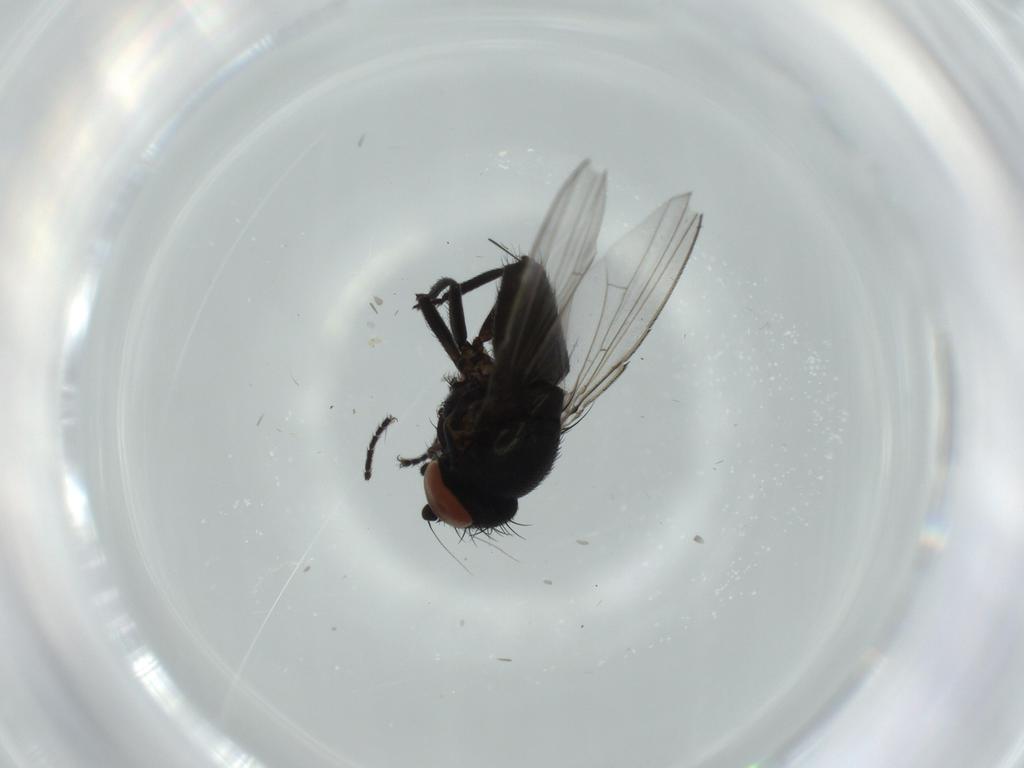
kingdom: Animalia
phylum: Arthropoda
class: Insecta
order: Diptera
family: Milichiidae
